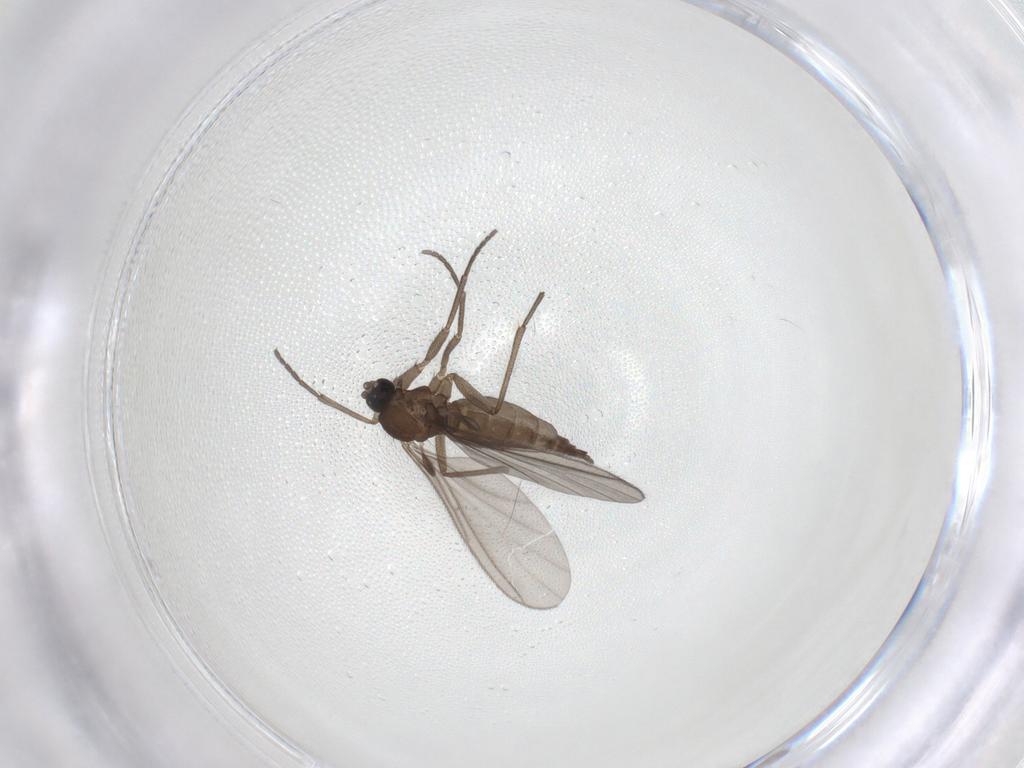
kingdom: Animalia
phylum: Arthropoda
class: Insecta
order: Diptera
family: Sciaridae
